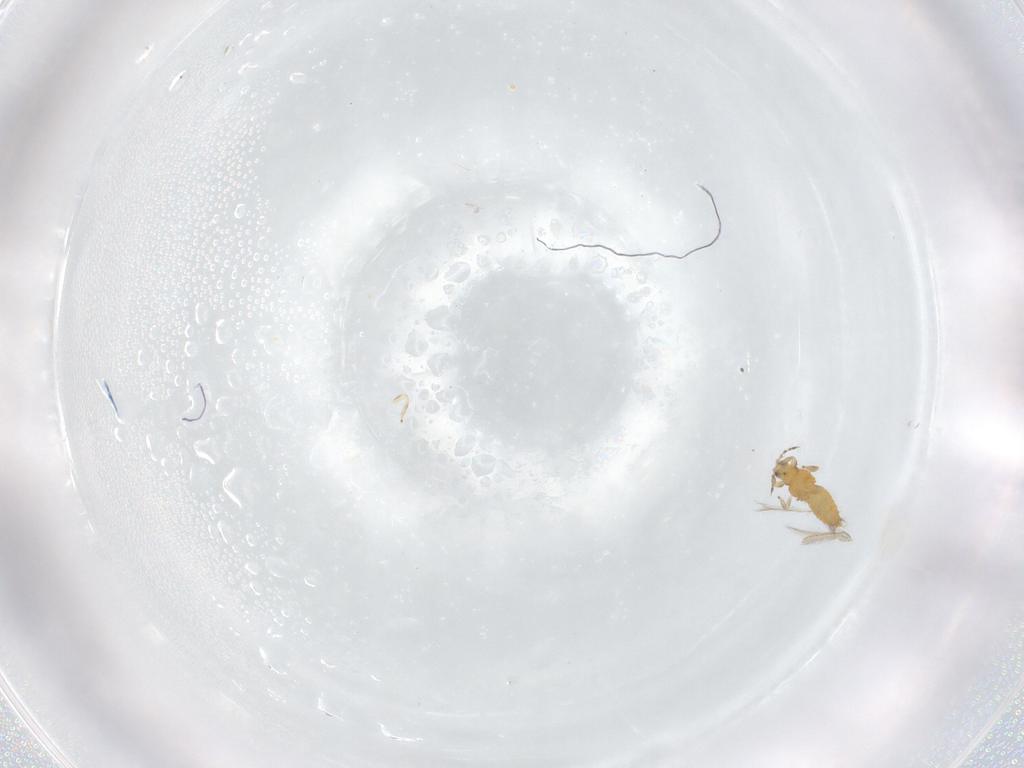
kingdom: Animalia
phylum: Arthropoda
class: Insecta
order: Thysanoptera
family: Thripidae
